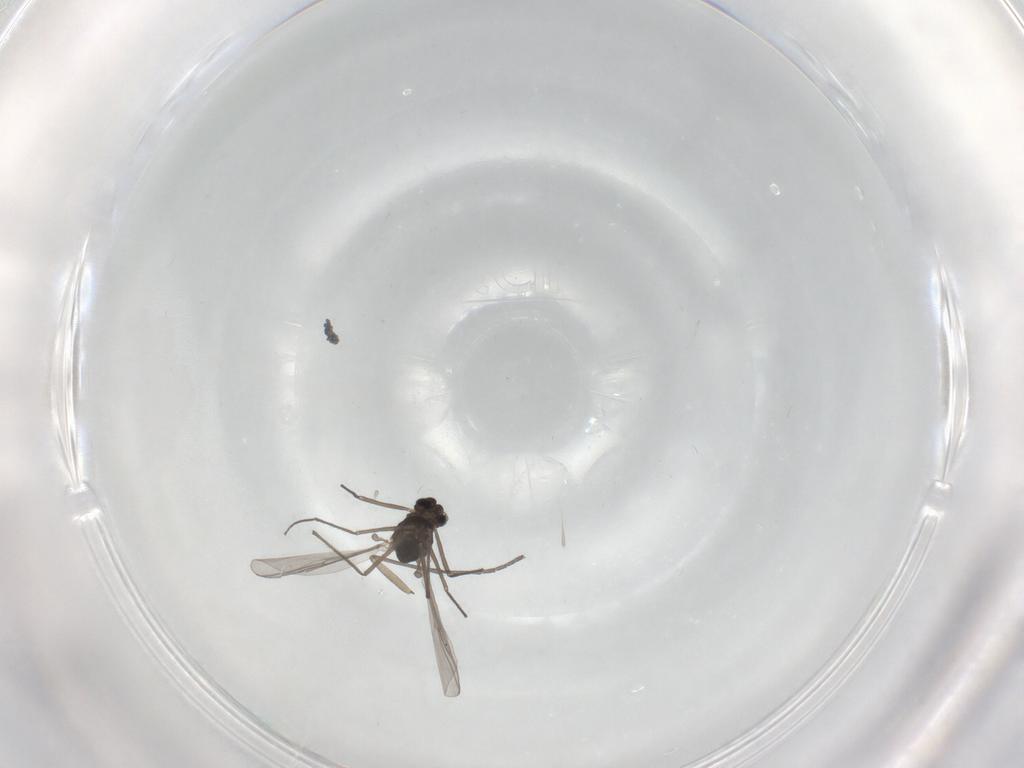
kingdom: Animalia
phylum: Arthropoda
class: Insecta
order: Diptera
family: Chironomidae
